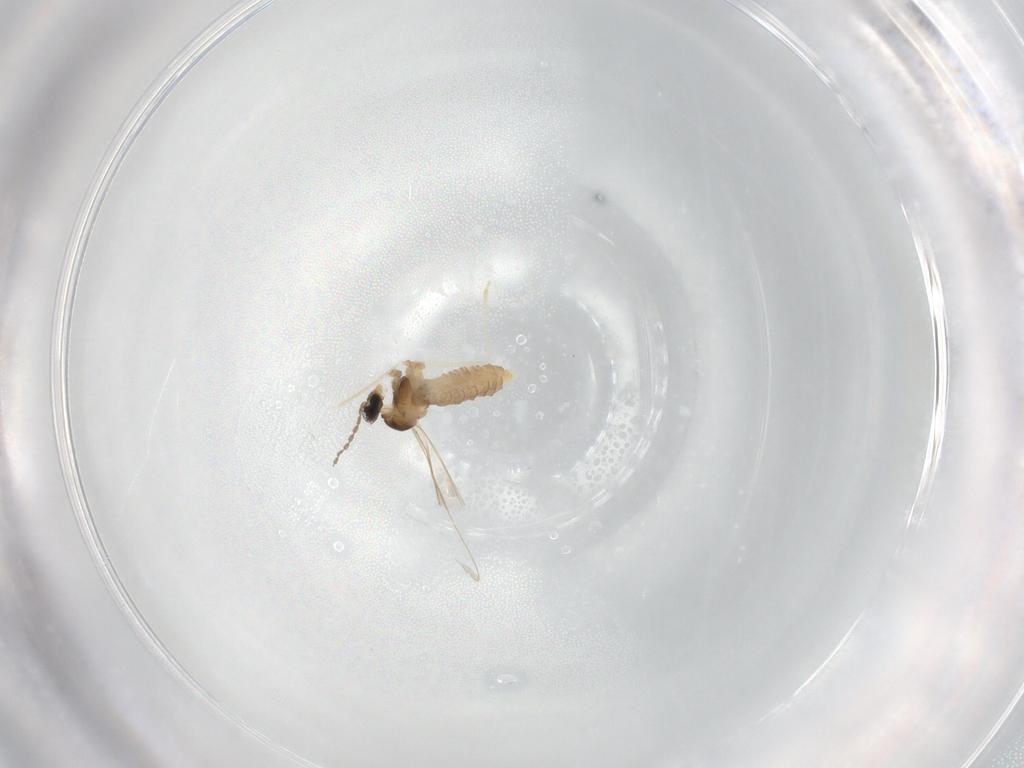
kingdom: Animalia
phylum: Arthropoda
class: Insecta
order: Diptera
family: Cecidomyiidae
